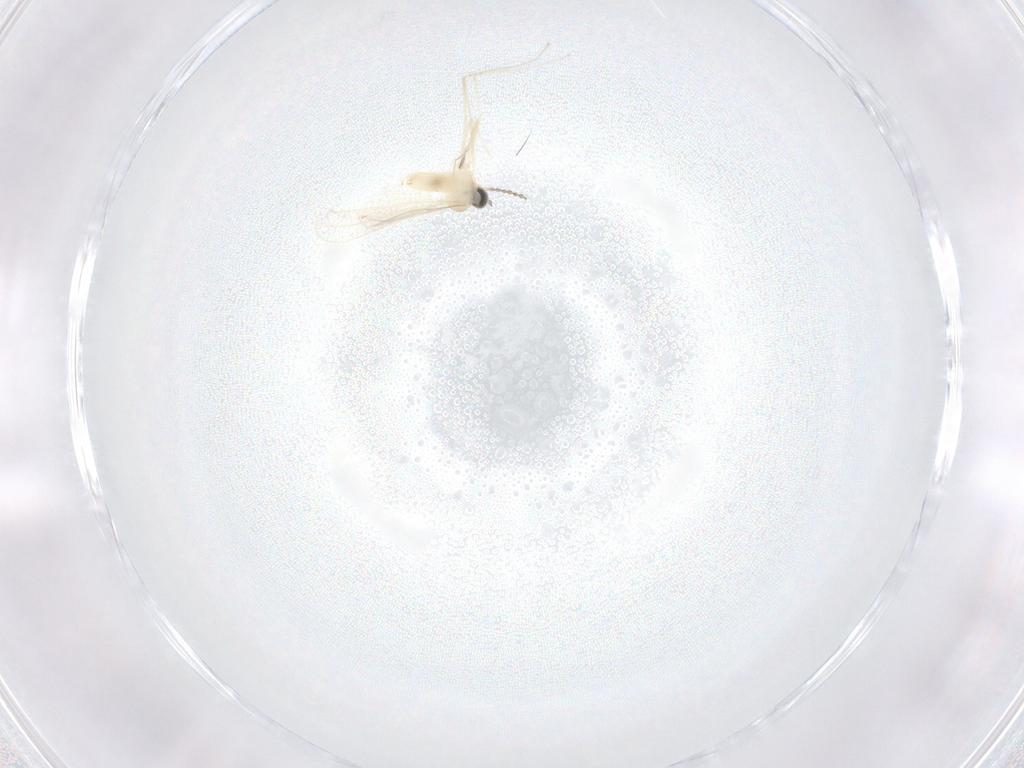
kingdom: Animalia
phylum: Arthropoda
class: Insecta
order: Diptera
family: Cecidomyiidae
